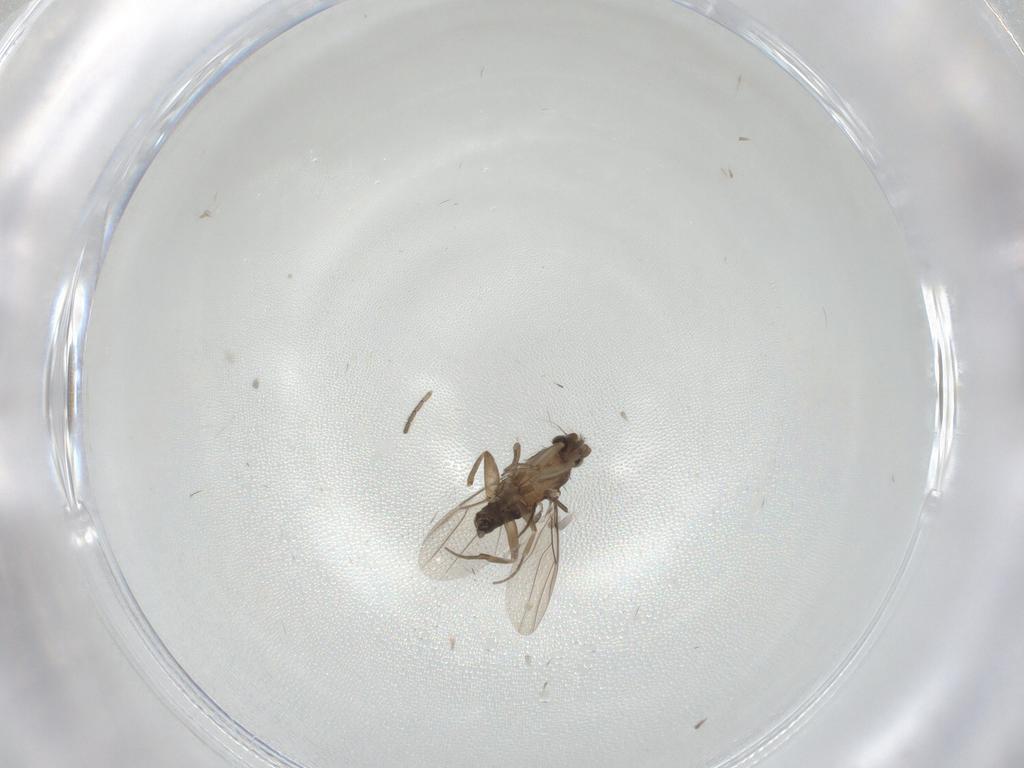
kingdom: Animalia
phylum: Arthropoda
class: Insecta
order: Diptera
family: Sciaridae
